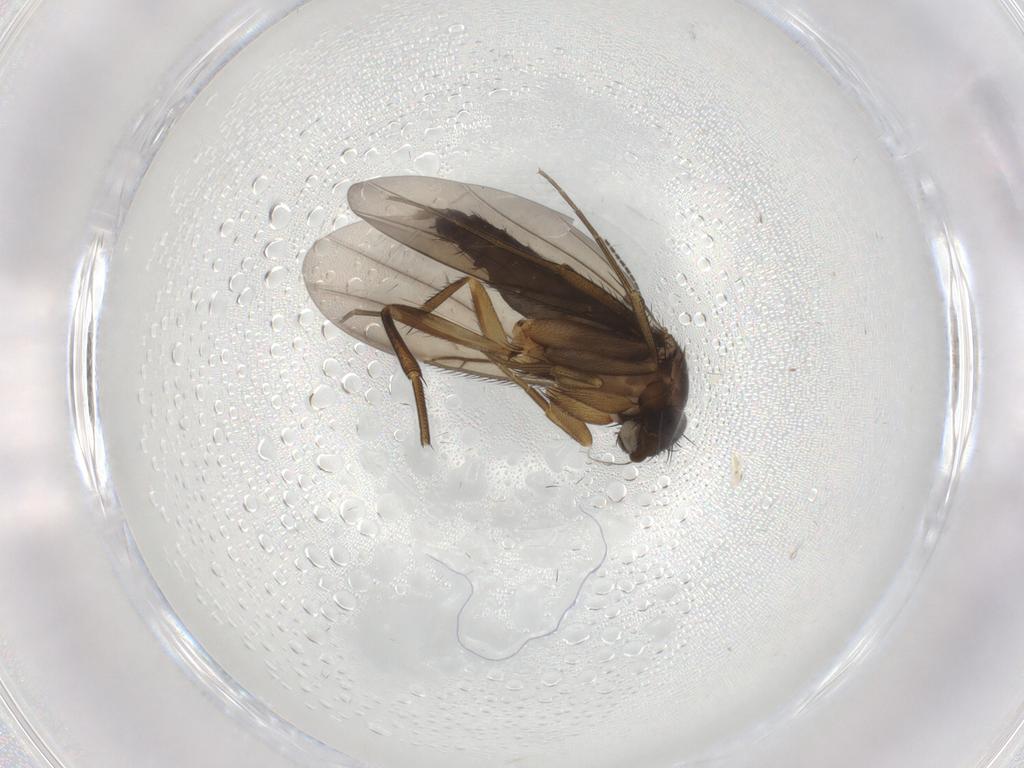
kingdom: Animalia
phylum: Arthropoda
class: Insecta
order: Diptera
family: Phoridae
